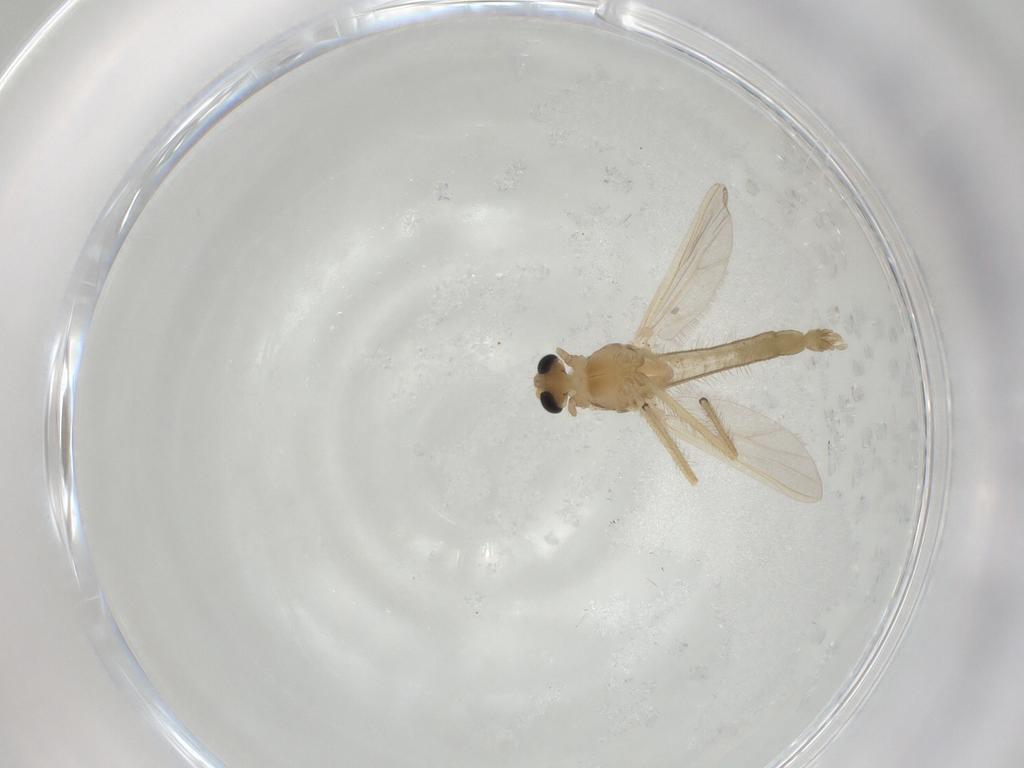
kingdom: Animalia
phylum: Arthropoda
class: Insecta
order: Diptera
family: Chironomidae
